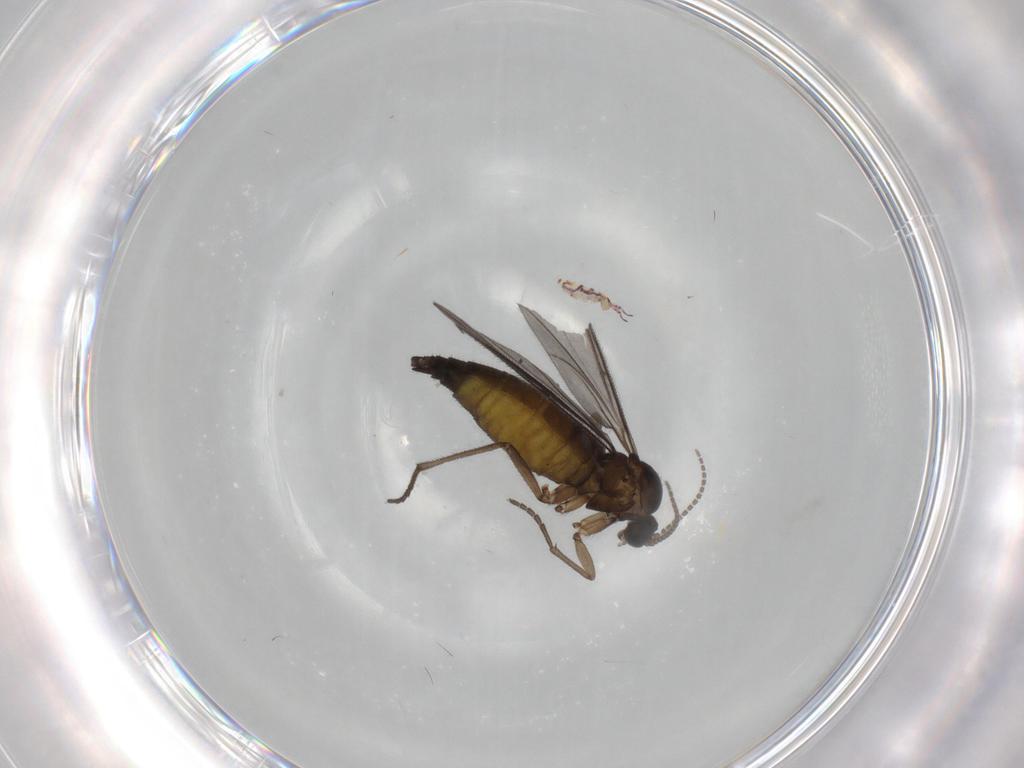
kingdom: Animalia
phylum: Arthropoda
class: Insecta
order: Diptera
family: Sciaridae
